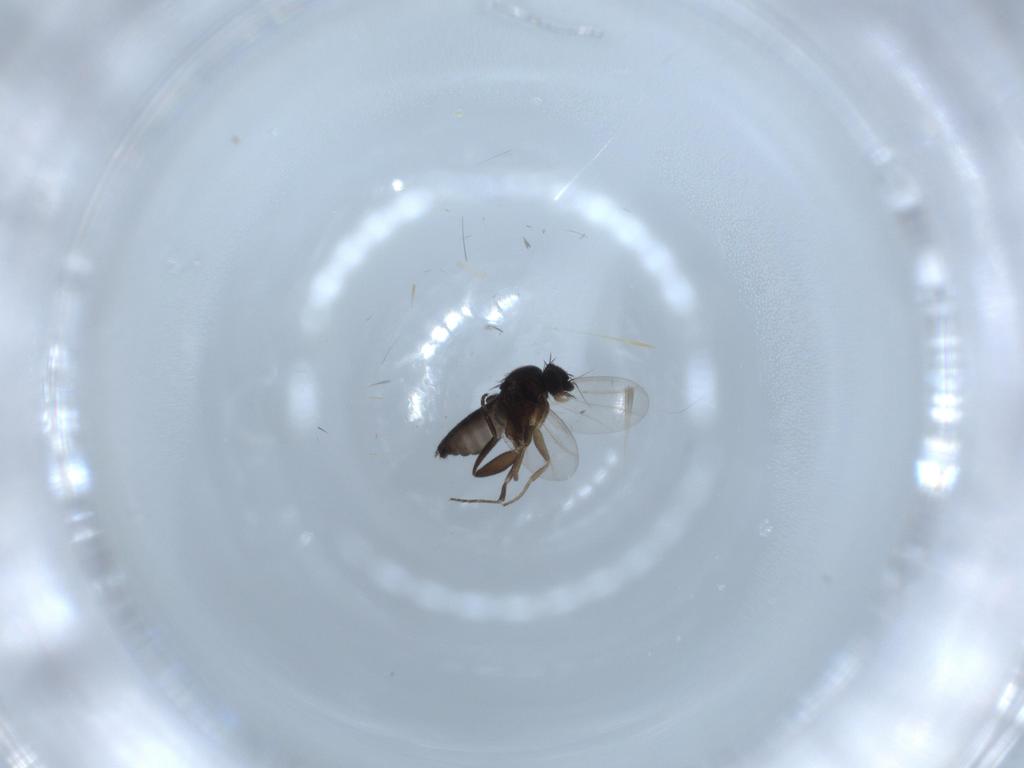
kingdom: Animalia
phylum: Arthropoda
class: Insecta
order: Diptera
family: Phoridae
